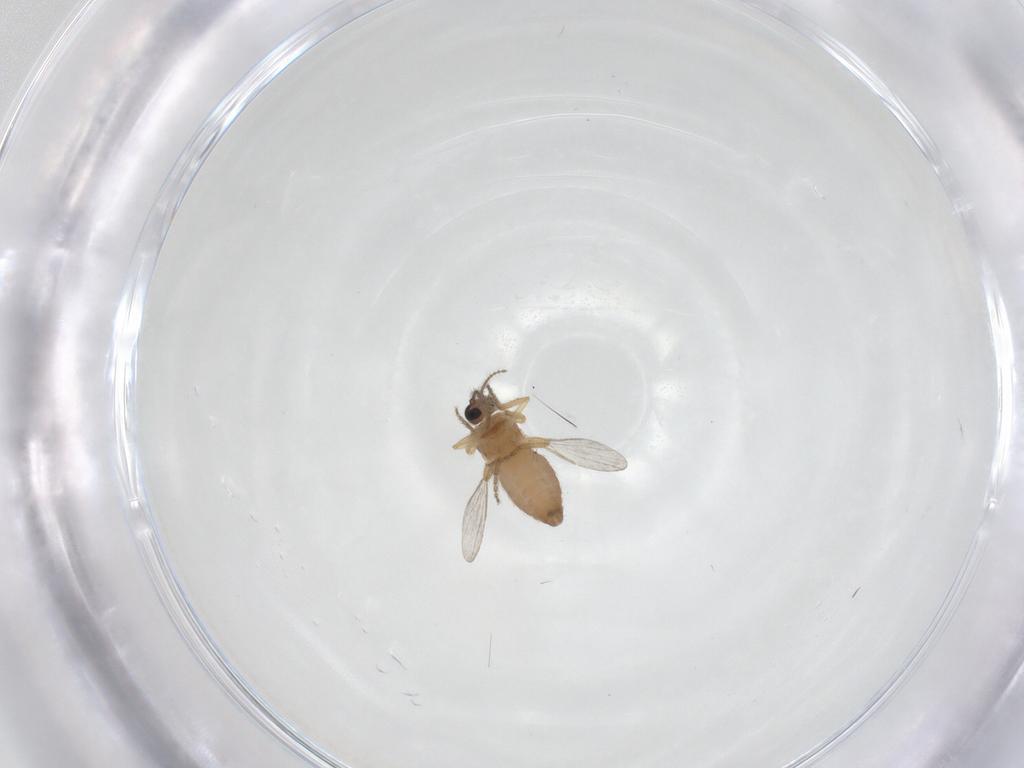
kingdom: Animalia
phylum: Arthropoda
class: Insecta
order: Diptera
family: Ceratopogonidae
